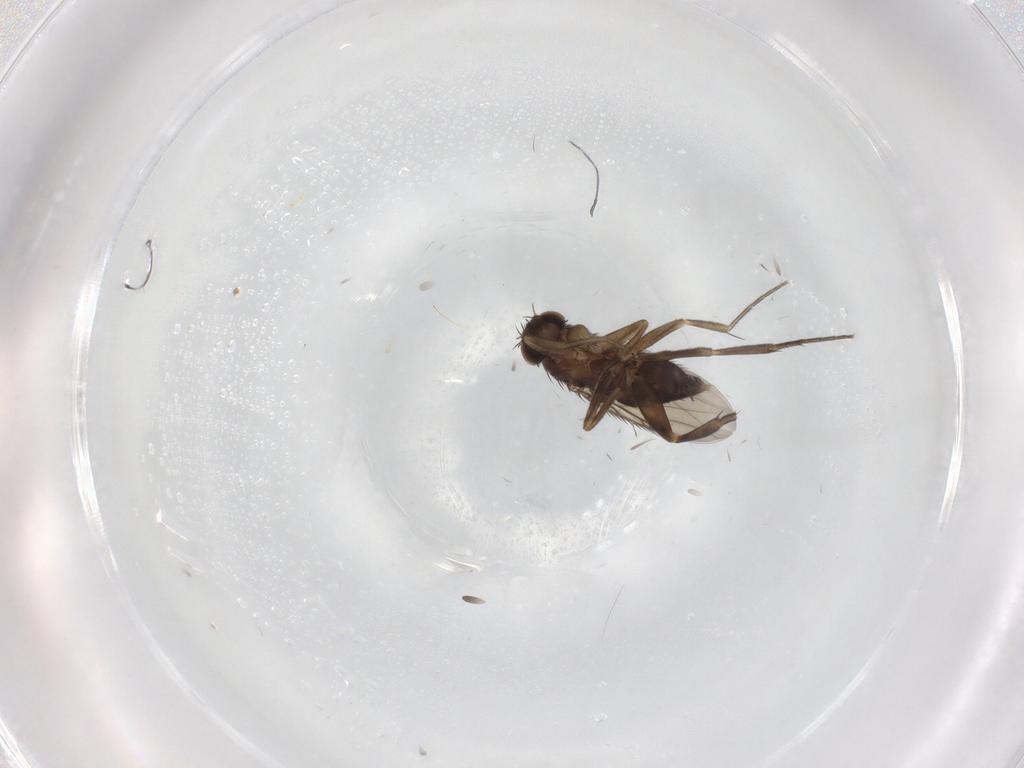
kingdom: Animalia
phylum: Arthropoda
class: Insecta
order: Diptera
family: Phoridae
